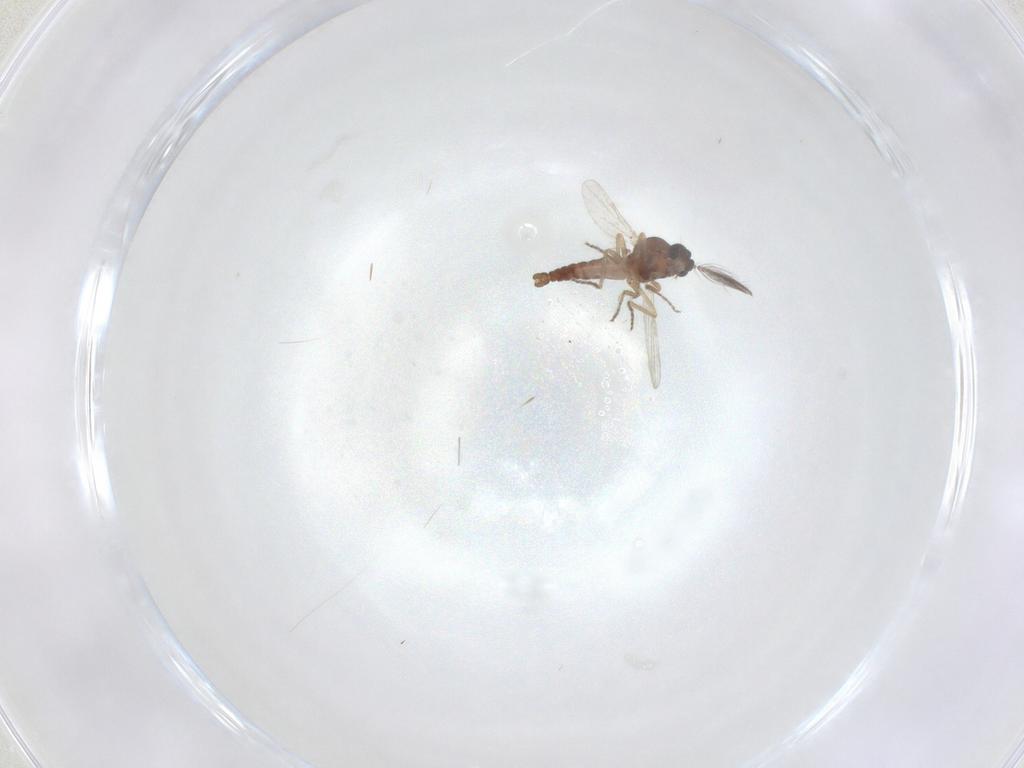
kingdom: Animalia
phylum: Arthropoda
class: Insecta
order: Diptera
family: Ceratopogonidae
